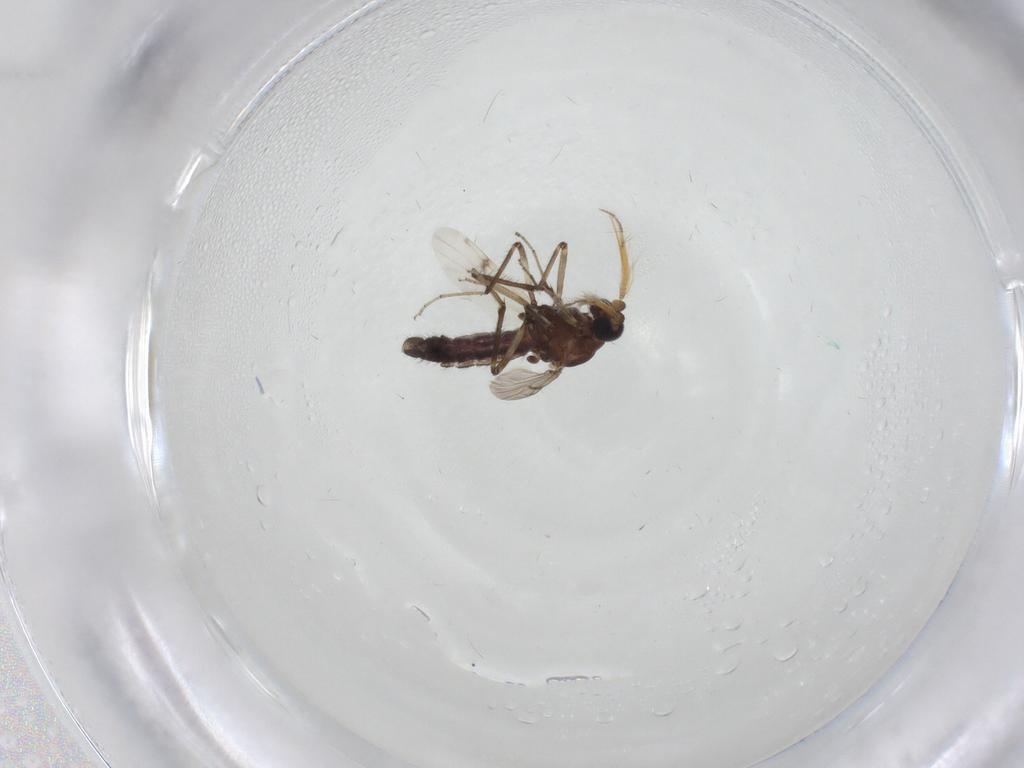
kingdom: Animalia
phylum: Arthropoda
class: Insecta
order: Diptera
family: Ceratopogonidae
